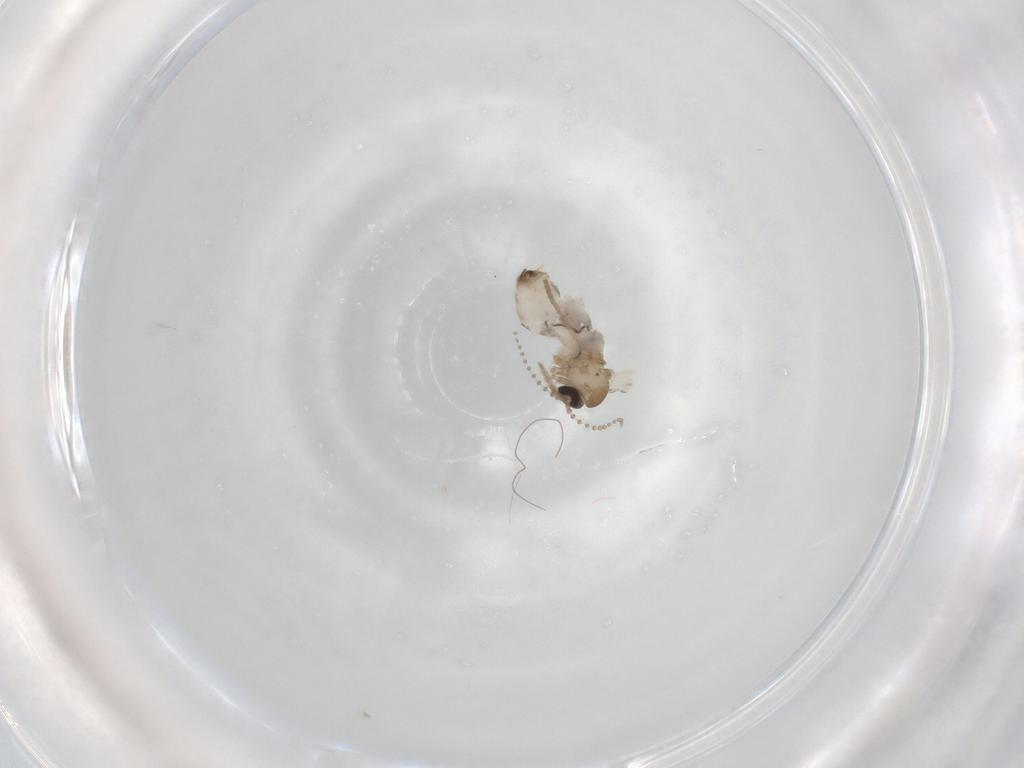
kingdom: Animalia
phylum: Arthropoda
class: Insecta
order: Diptera
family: Psychodidae
